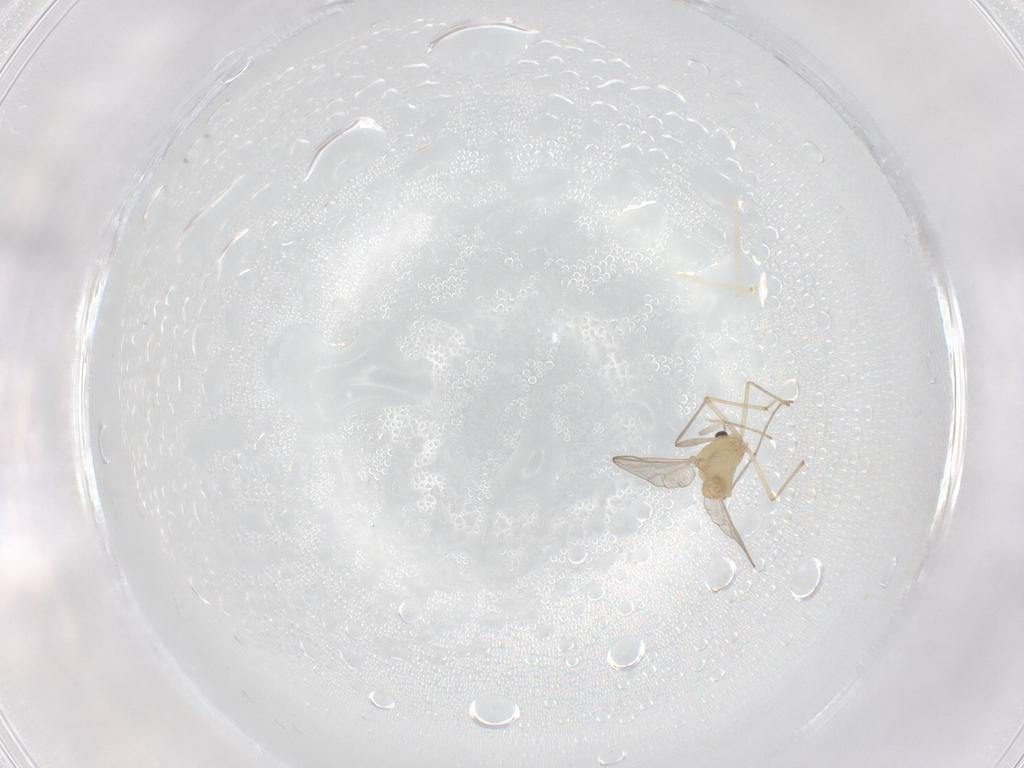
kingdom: Animalia
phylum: Arthropoda
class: Insecta
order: Diptera
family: Chironomidae
